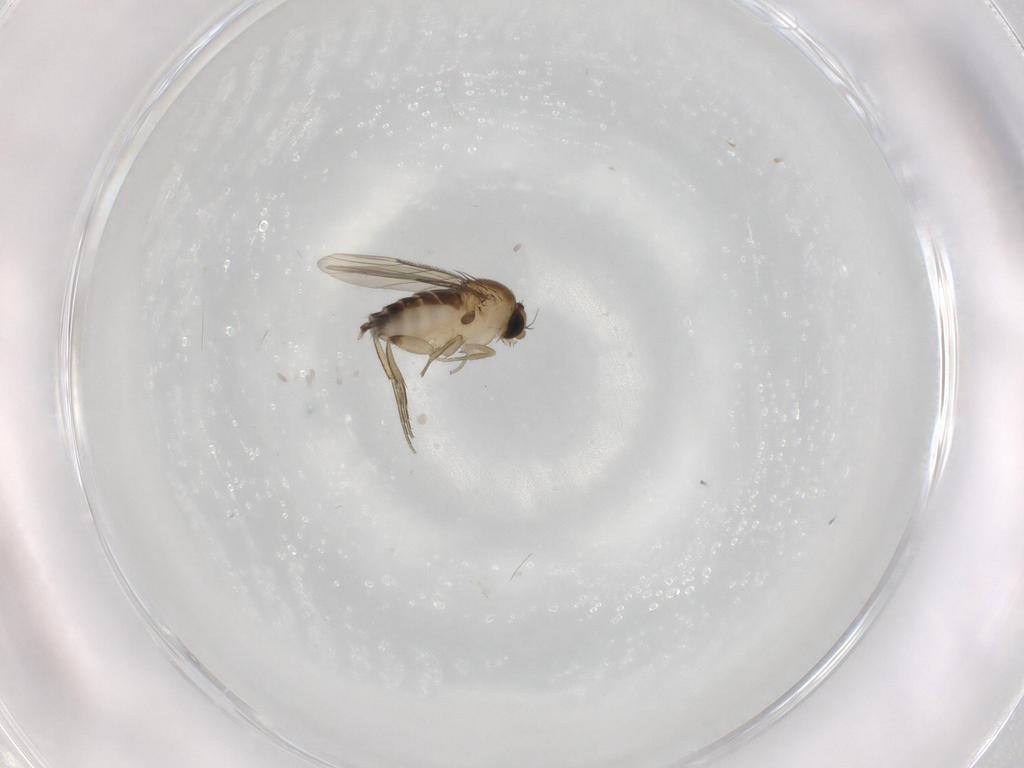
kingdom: Animalia
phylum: Arthropoda
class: Insecta
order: Diptera
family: Phoridae
